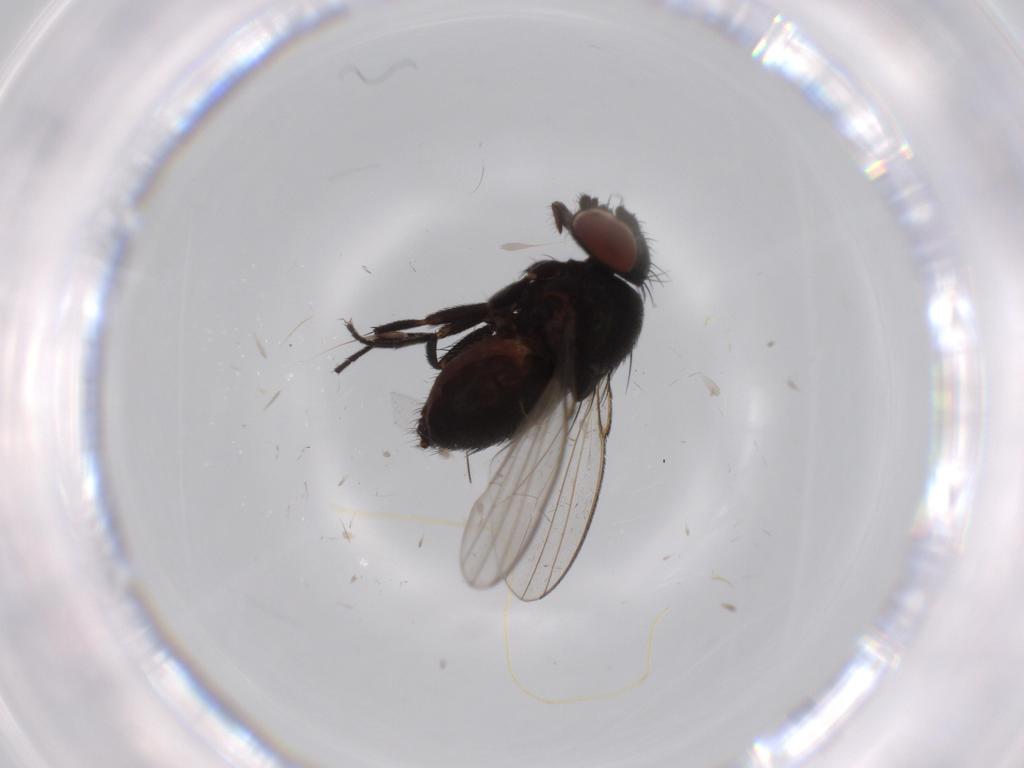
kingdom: Animalia
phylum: Arthropoda
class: Insecta
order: Diptera
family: Milichiidae
